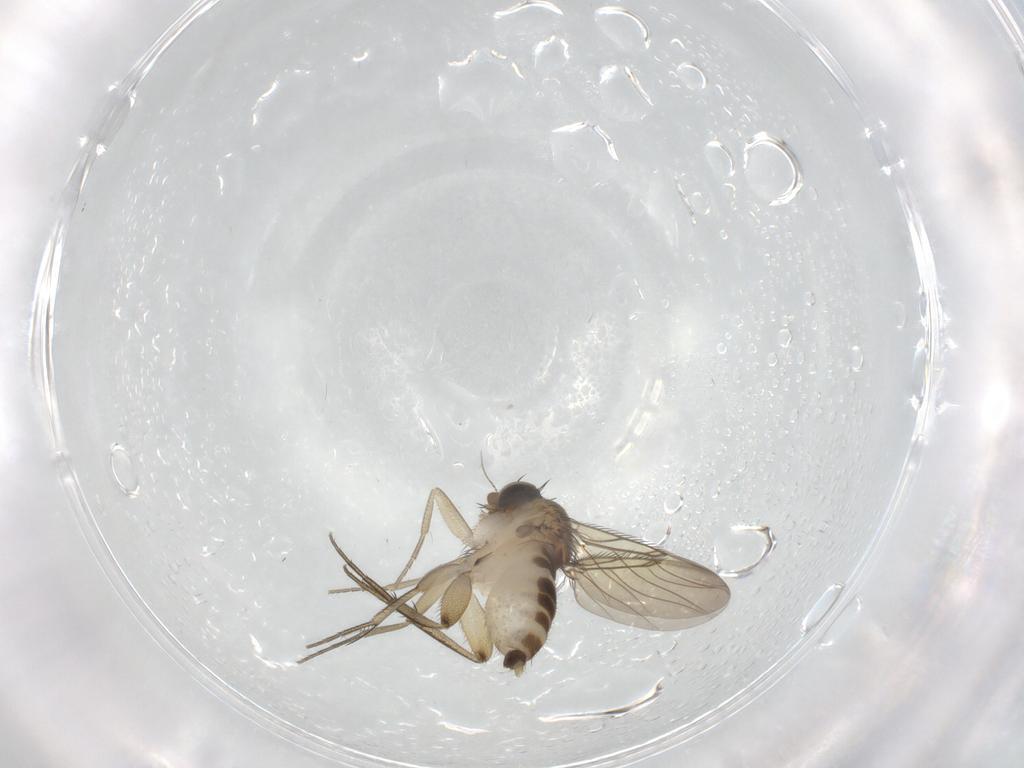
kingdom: Animalia
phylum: Arthropoda
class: Insecta
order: Diptera
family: Phoridae
